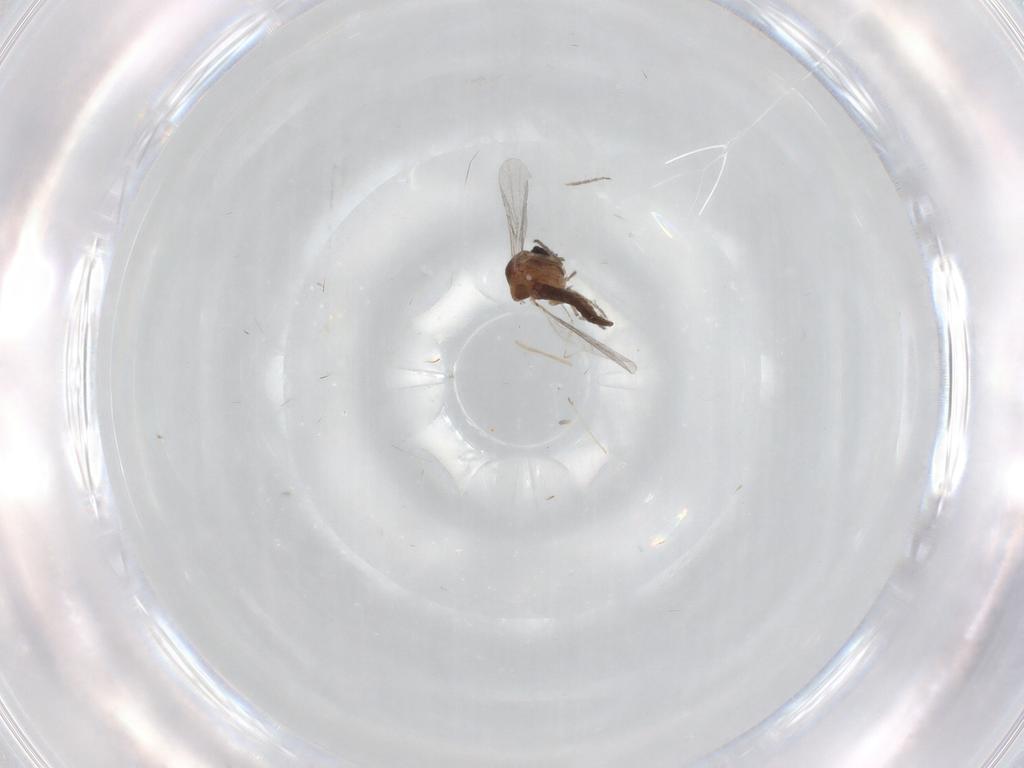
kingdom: Animalia
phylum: Arthropoda
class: Insecta
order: Diptera
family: Ceratopogonidae
